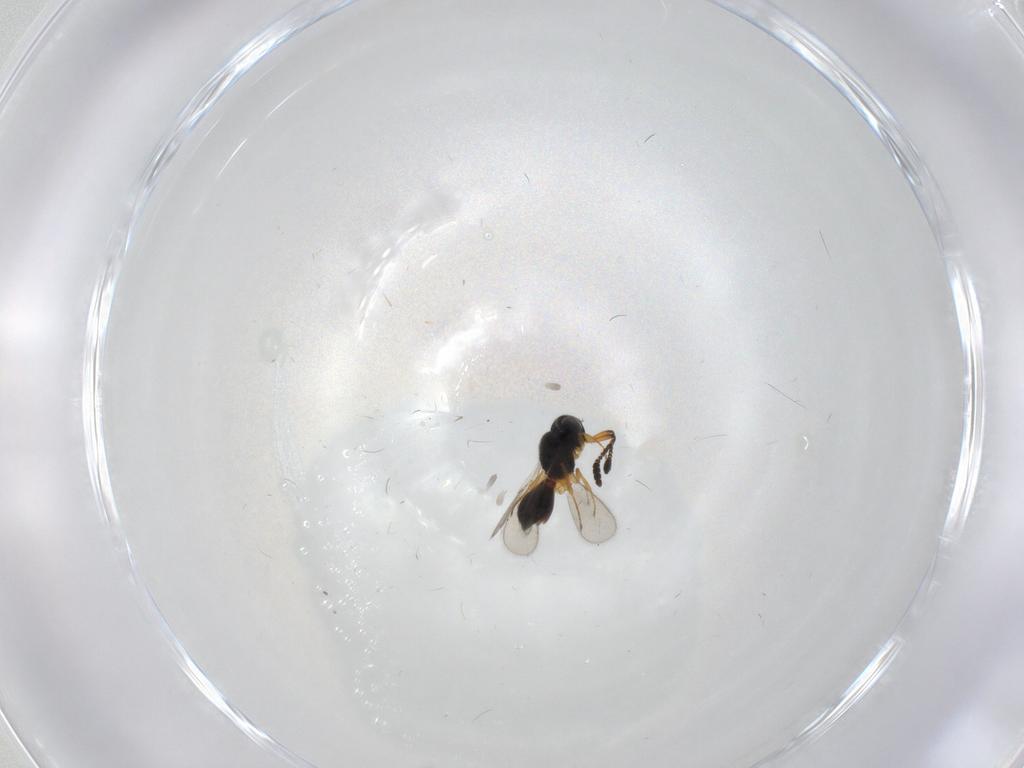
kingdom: Animalia
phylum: Arthropoda
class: Insecta
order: Hymenoptera
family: Scelionidae
